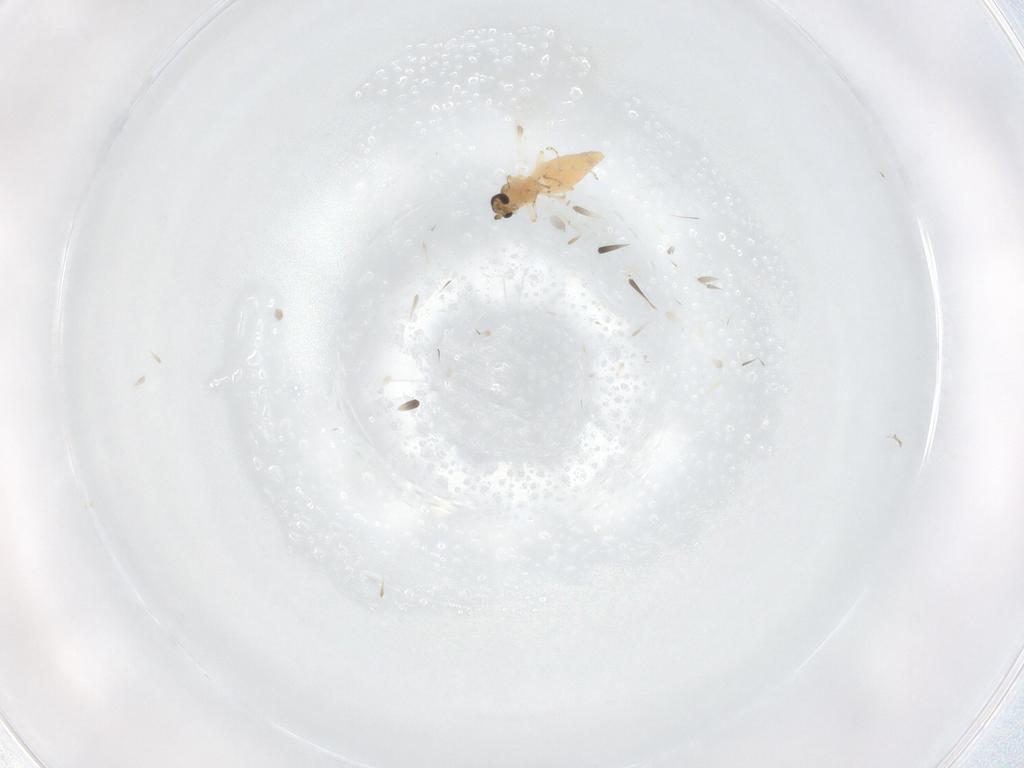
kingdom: Animalia
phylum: Arthropoda
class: Insecta
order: Diptera
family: Ceratopogonidae
